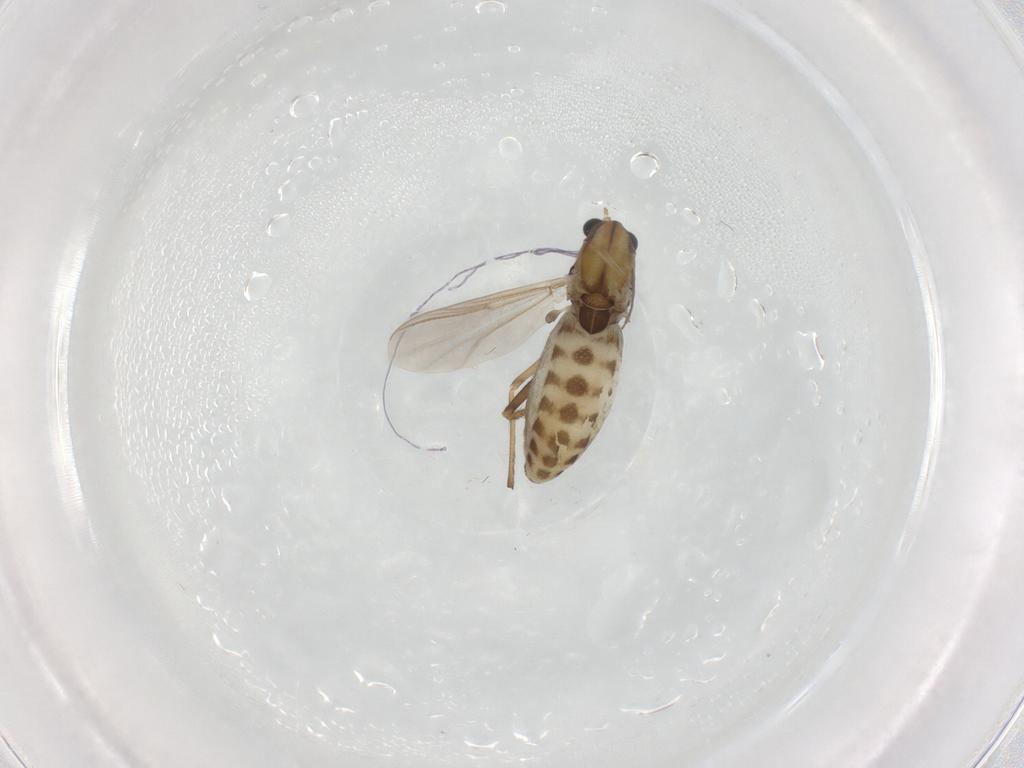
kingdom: Animalia
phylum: Arthropoda
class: Insecta
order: Diptera
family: Chironomidae
